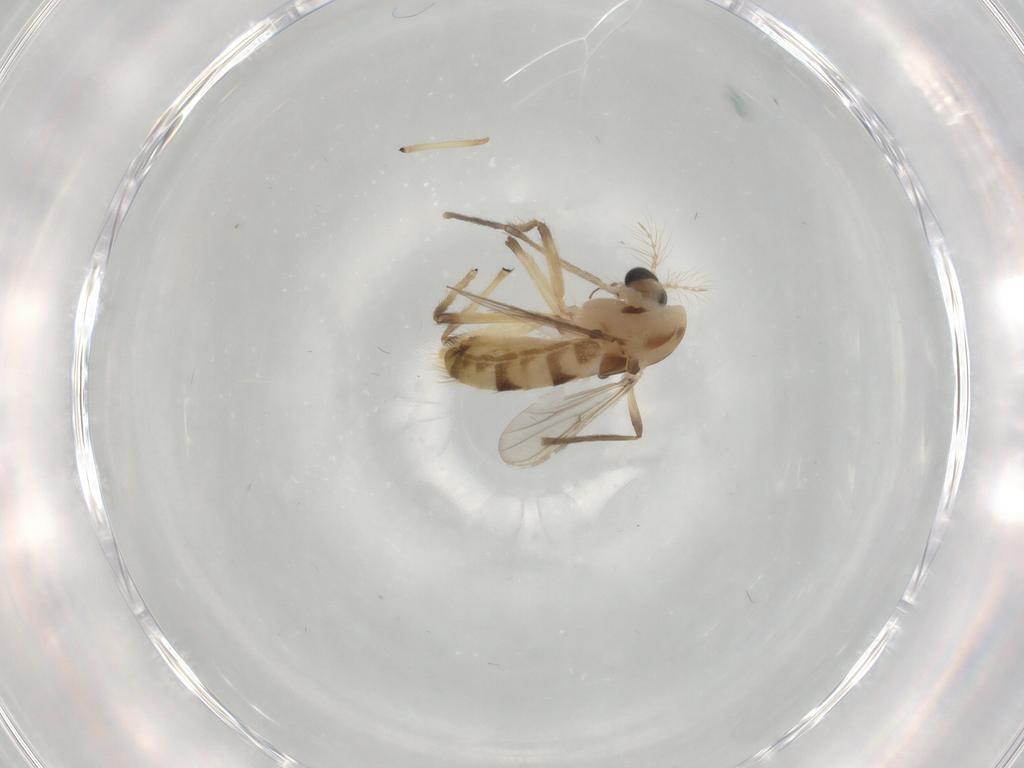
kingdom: Animalia
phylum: Arthropoda
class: Insecta
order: Diptera
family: Chironomidae
